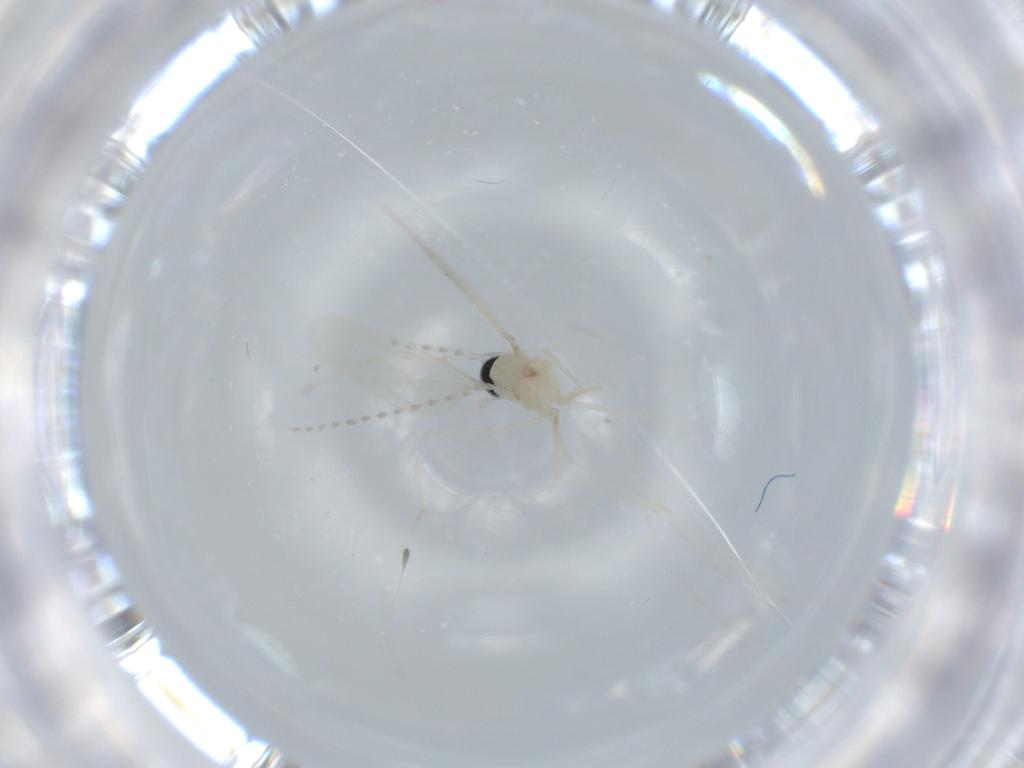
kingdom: Animalia
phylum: Arthropoda
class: Insecta
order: Diptera
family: Cecidomyiidae
